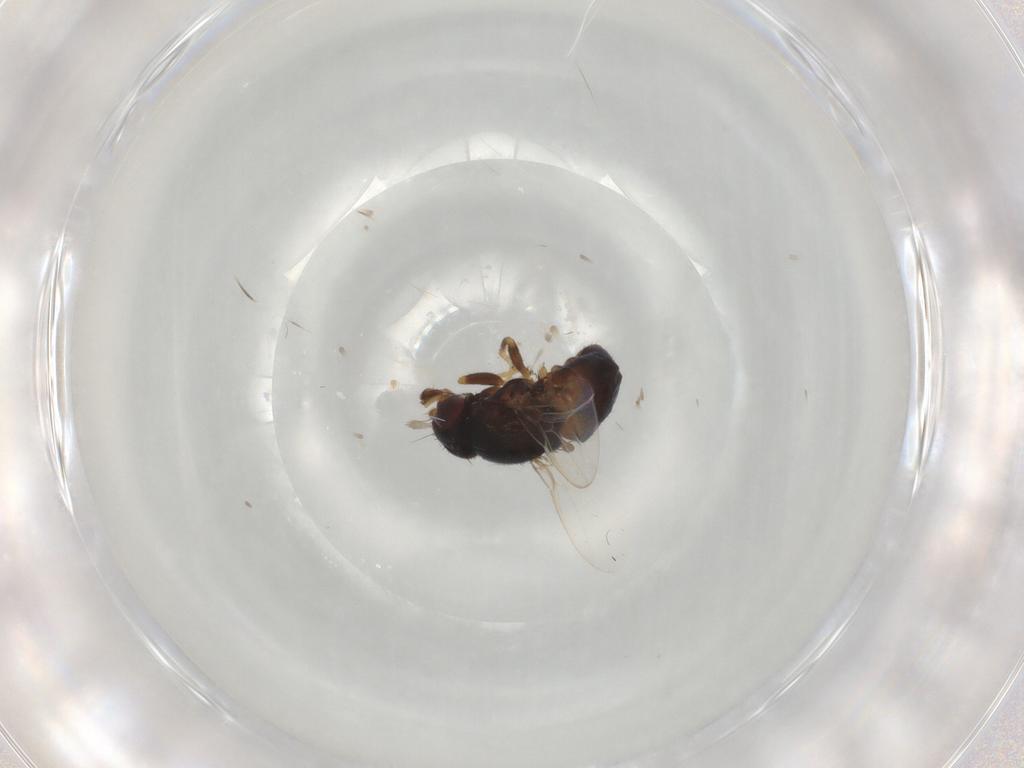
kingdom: Animalia
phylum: Arthropoda
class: Insecta
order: Diptera
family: Chloropidae
